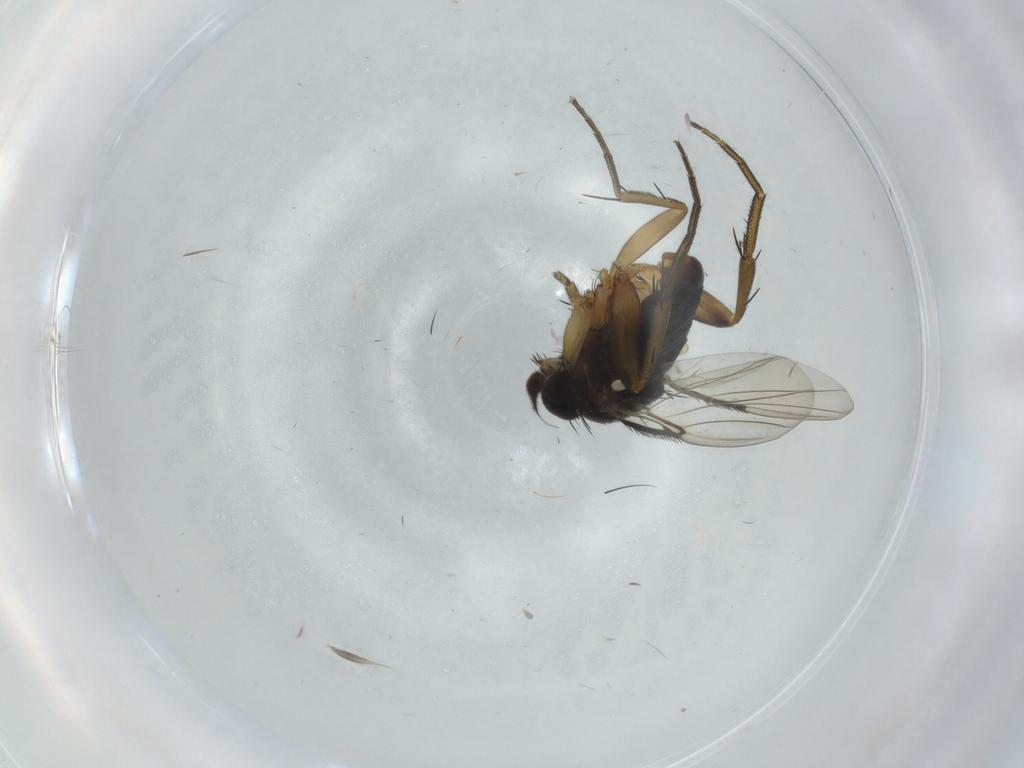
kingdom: Animalia
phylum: Arthropoda
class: Insecta
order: Diptera
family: Phoridae
